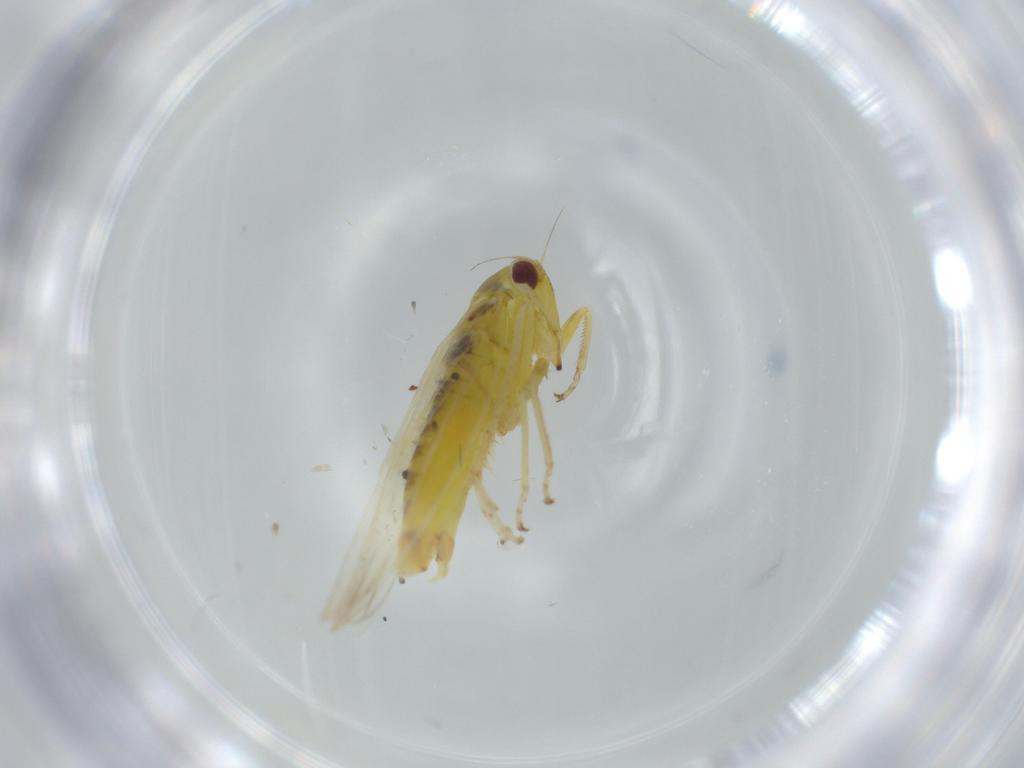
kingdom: Animalia
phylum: Arthropoda
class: Insecta
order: Hemiptera
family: Cicadellidae
